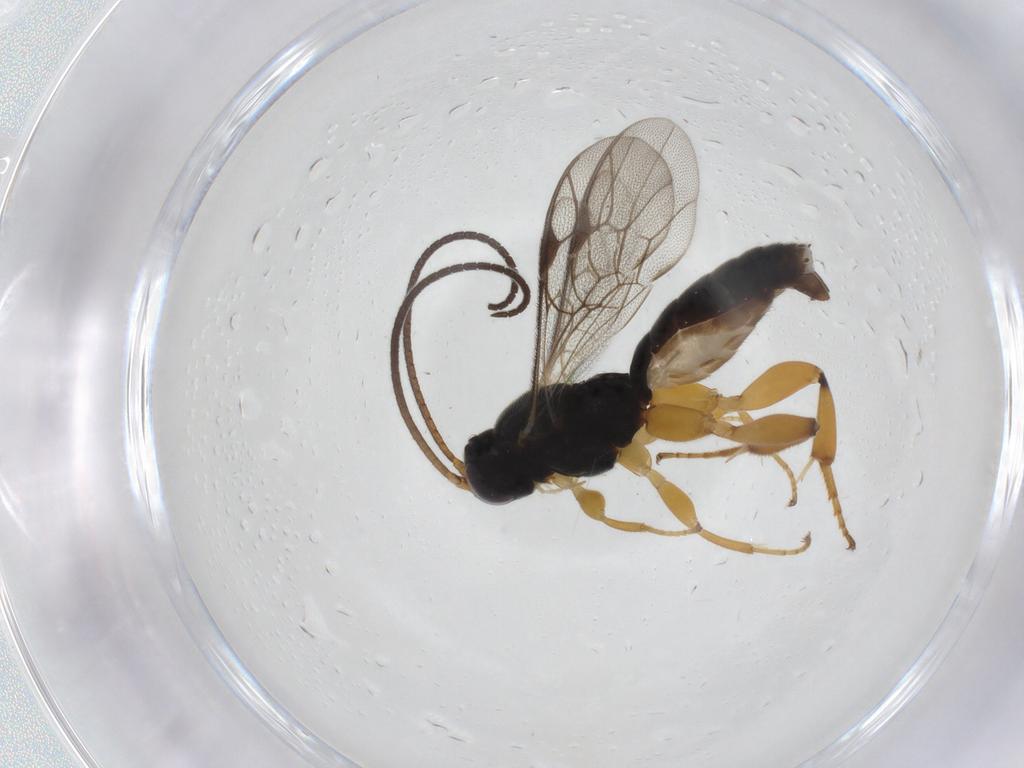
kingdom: Animalia
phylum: Arthropoda
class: Insecta
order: Hymenoptera
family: Ichneumonidae
